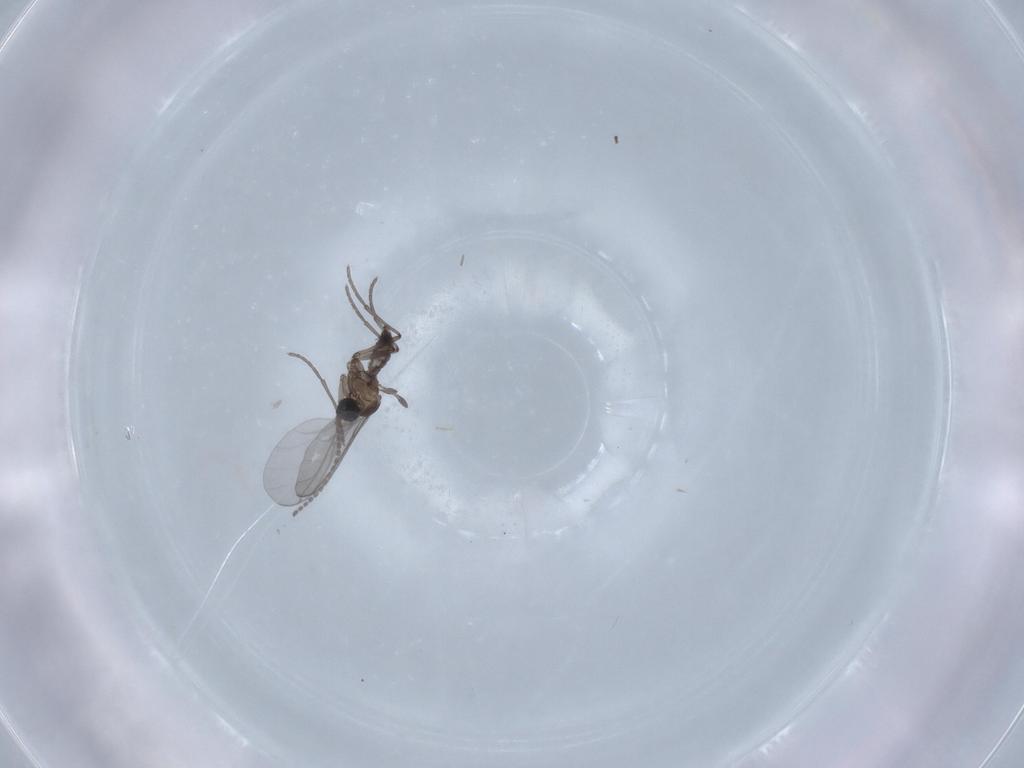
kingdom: Animalia
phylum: Arthropoda
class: Insecta
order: Diptera
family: Sciaridae
